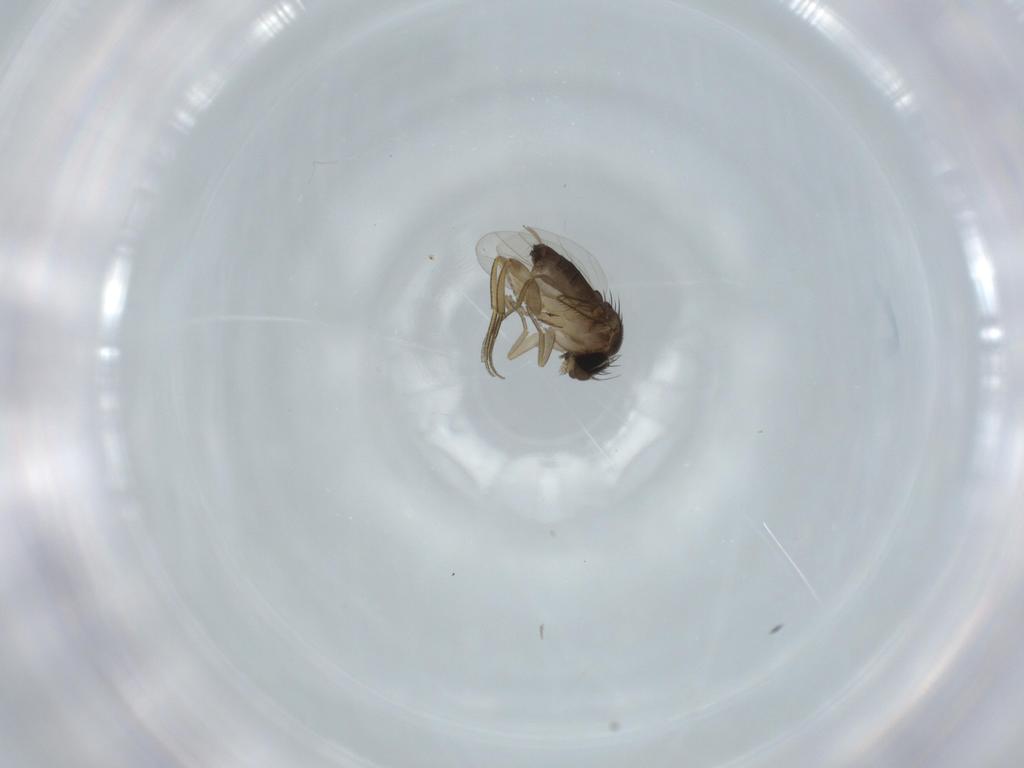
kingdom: Animalia
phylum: Arthropoda
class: Insecta
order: Diptera
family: Phoridae
